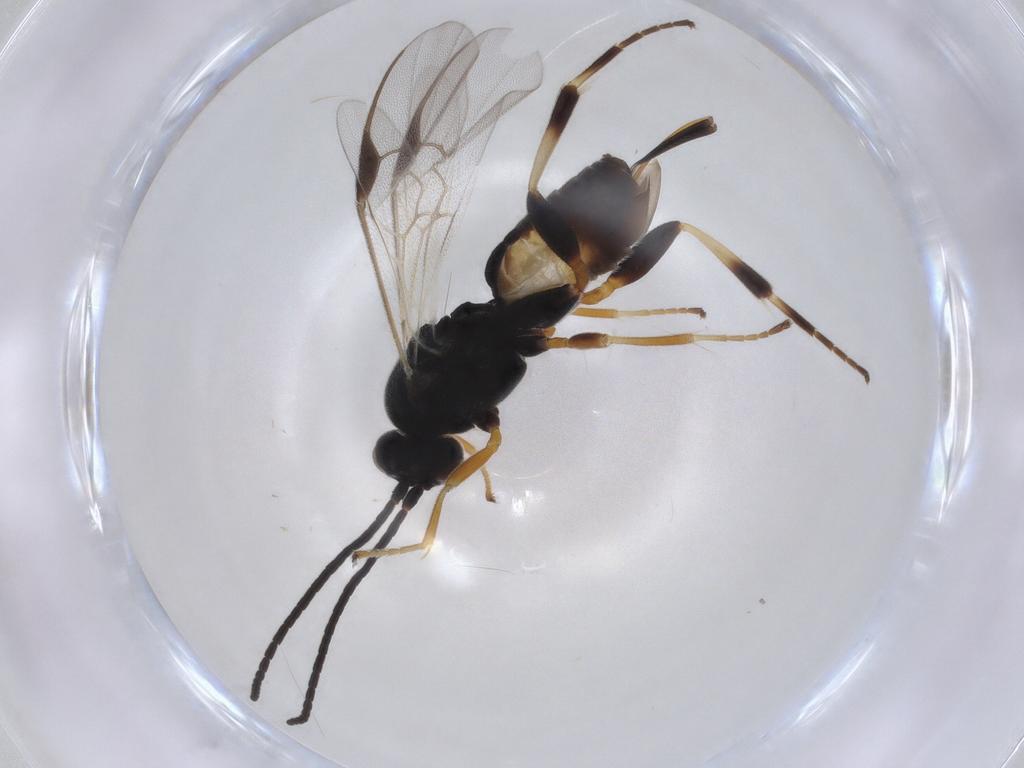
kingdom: Animalia
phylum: Arthropoda
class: Insecta
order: Hymenoptera
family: Braconidae
